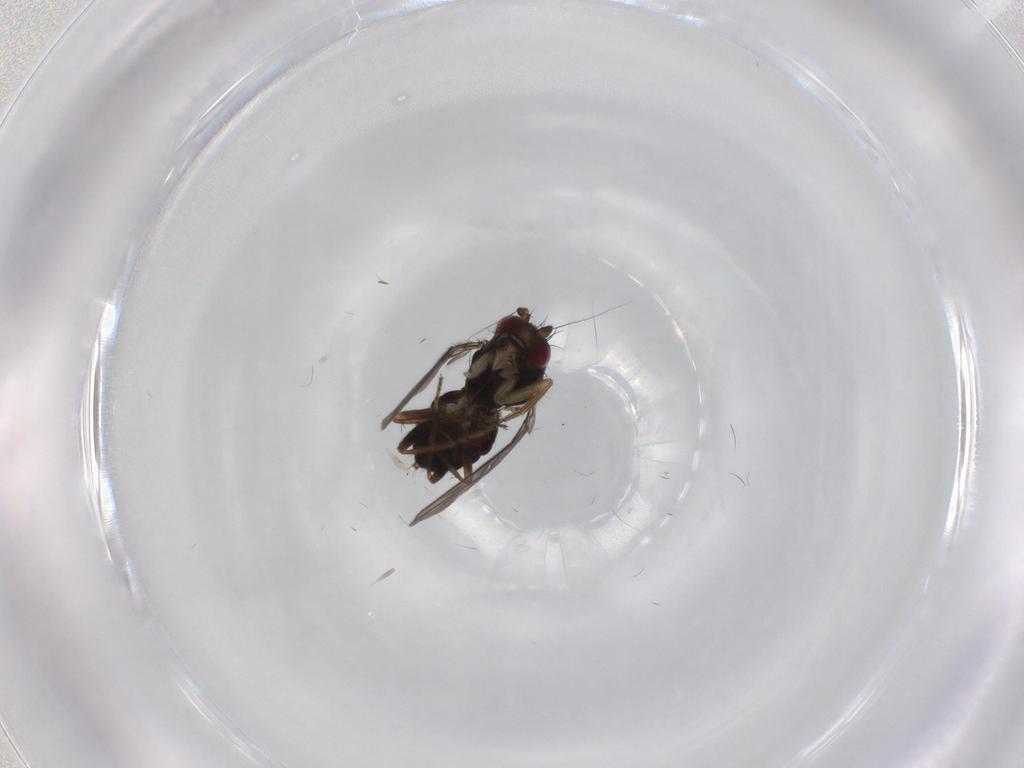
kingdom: Animalia
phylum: Arthropoda
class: Insecta
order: Diptera
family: Sphaeroceridae
